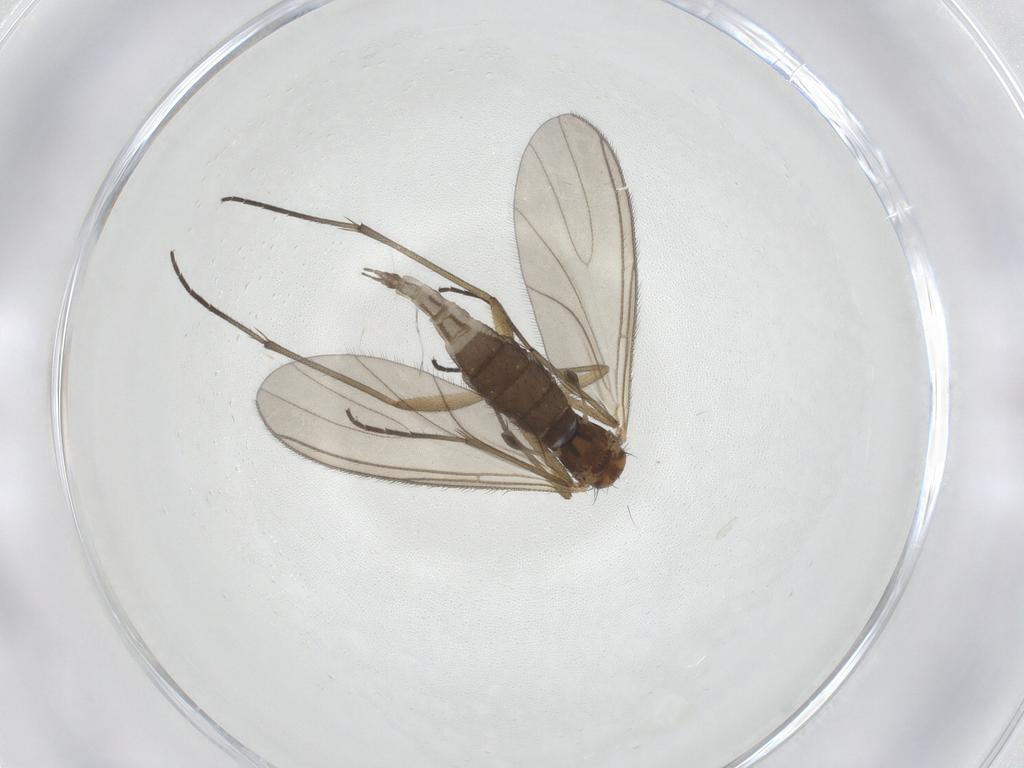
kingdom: Animalia
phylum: Arthropoda
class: Insecta
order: Diptera
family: Sciaridae
